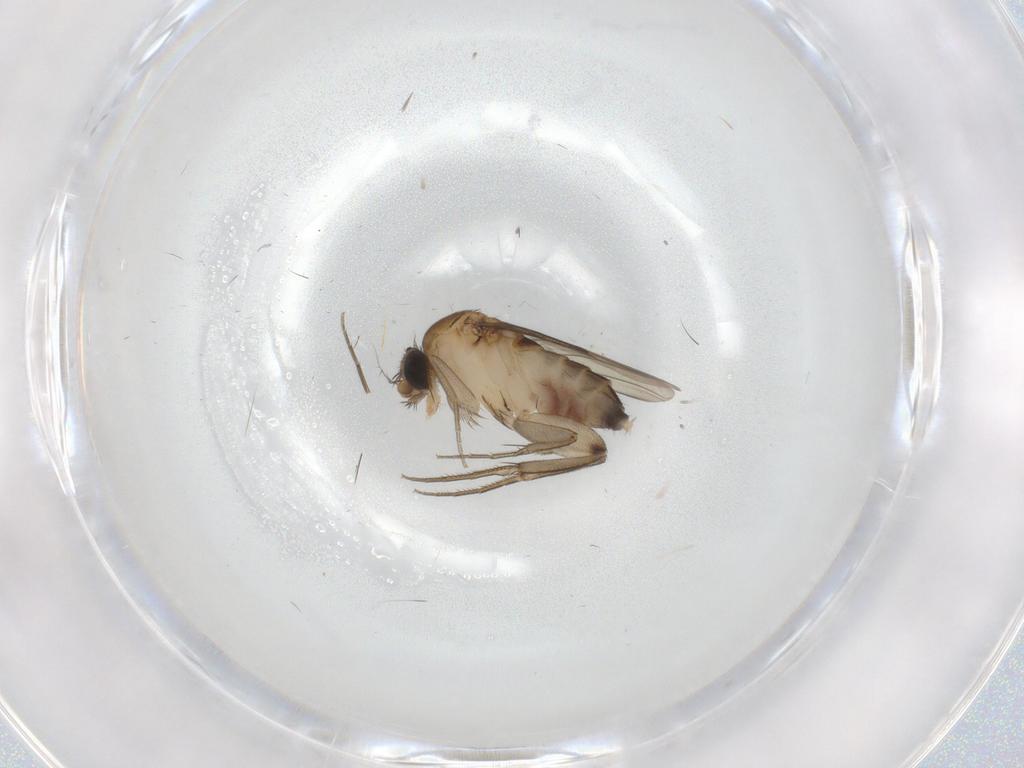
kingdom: Animalia
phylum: Arthropoda
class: Insecta
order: Diptera
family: Phoridae
